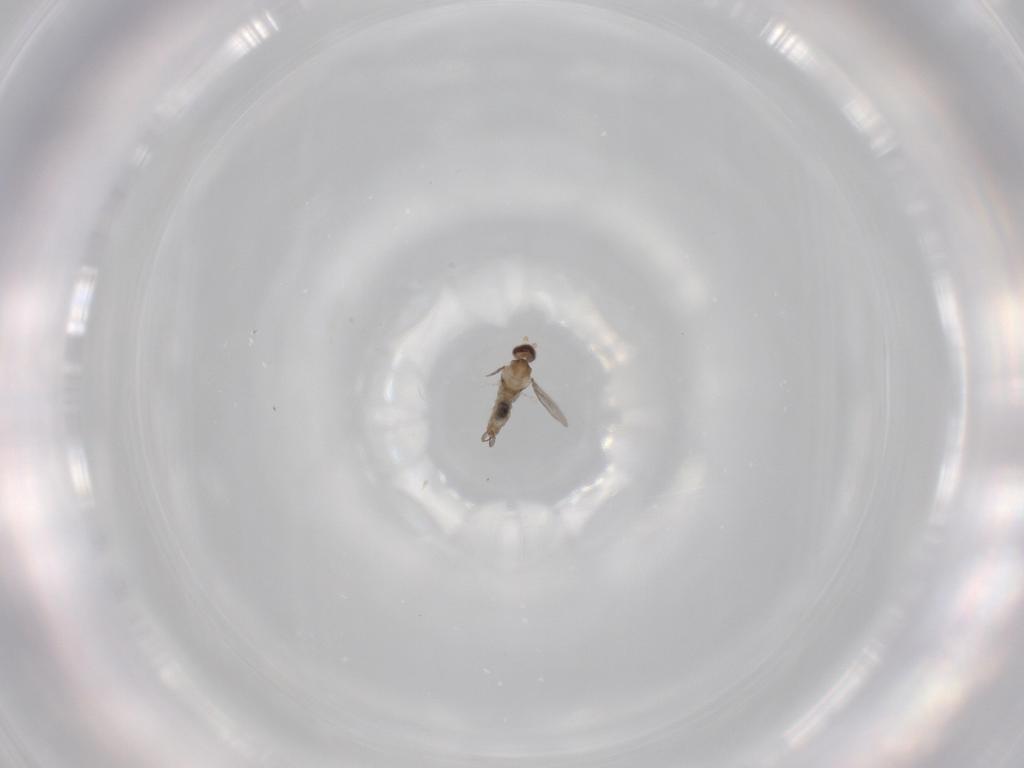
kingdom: Animalia
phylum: Arthropoda
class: Insecta
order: Diptera
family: Cecidomyiidae
